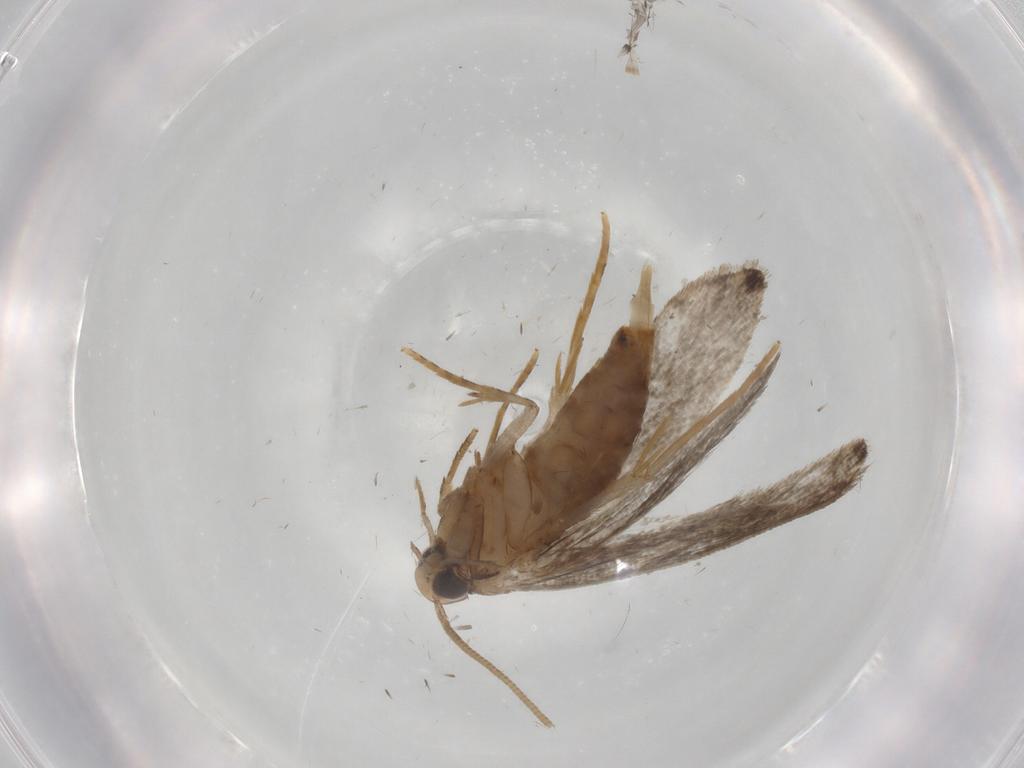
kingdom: Animalia
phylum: Arthropoda
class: Insecta
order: Lepidoptera
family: Tineidae
